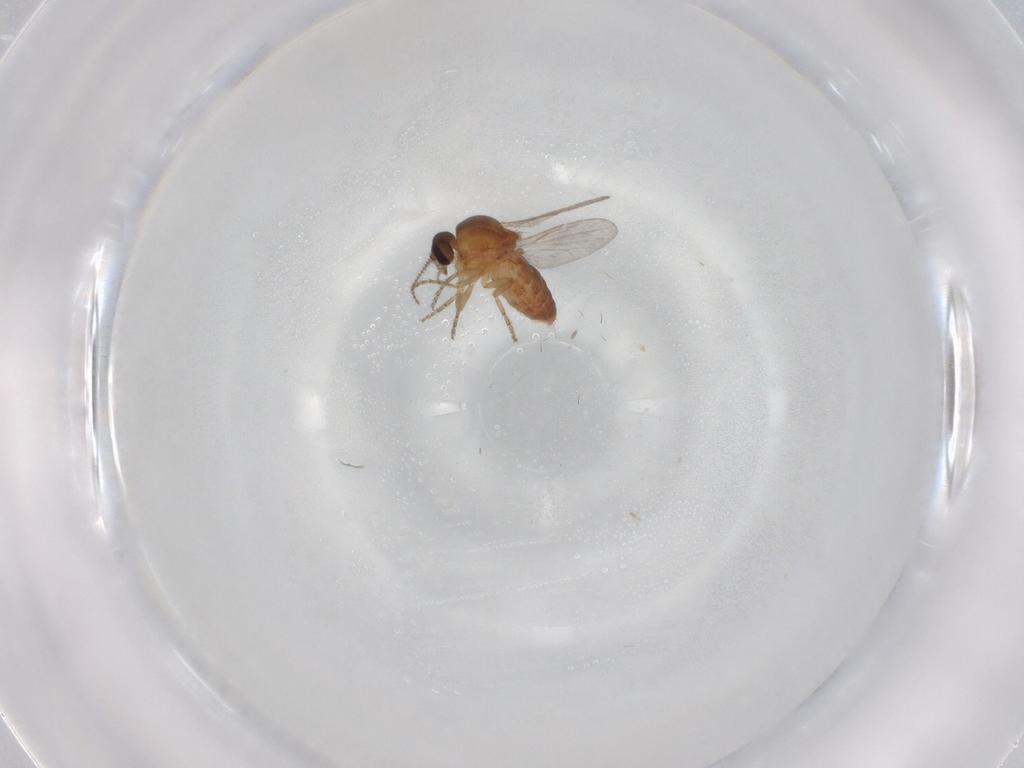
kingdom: Animalia
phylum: Arthropoda
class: Insecta
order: Diptera
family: Ceratopogonidae
